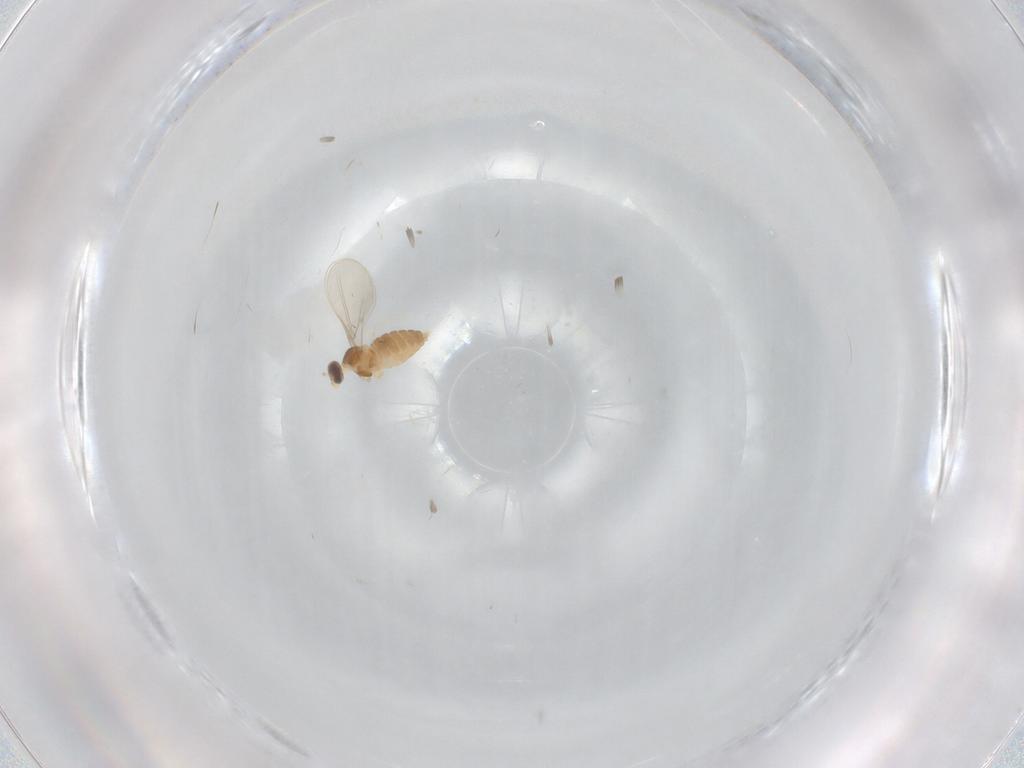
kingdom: Animalia
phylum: Arthropoda
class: Insecta
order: Diptera
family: Cecidomyiidae
